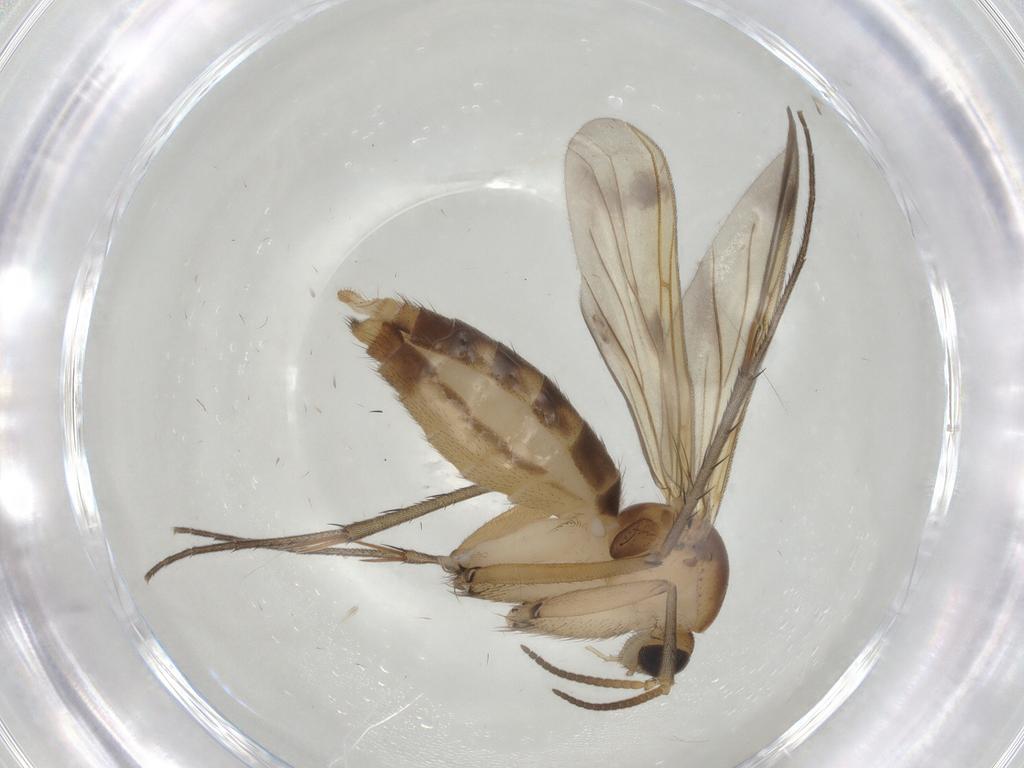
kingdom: Animalia
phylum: Arthropoda
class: Insecta
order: Diptera
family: Mycetophilidae
